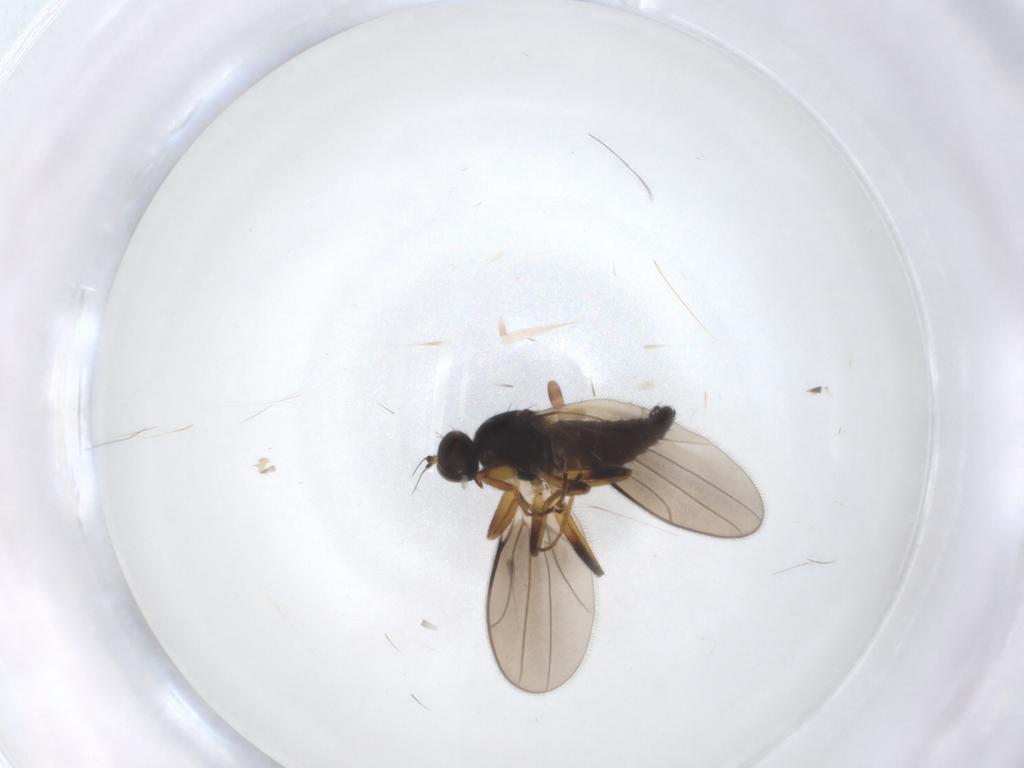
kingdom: Animalia
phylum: Arthropoda
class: Insecta
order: Diptera
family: Hybotidae
